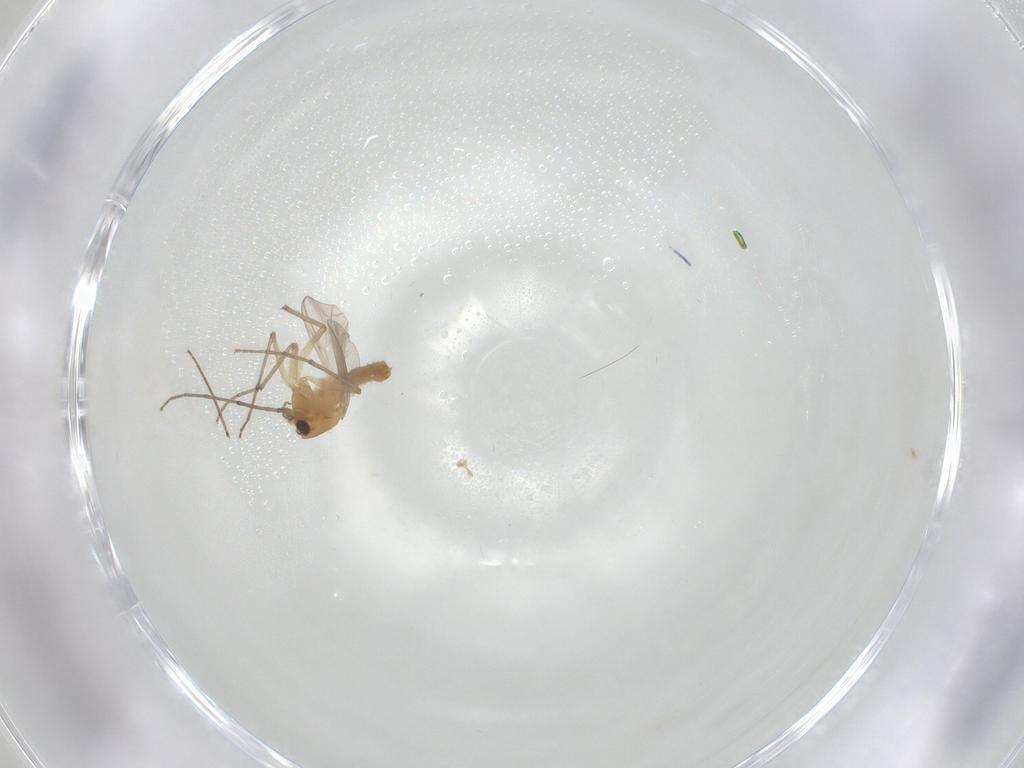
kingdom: Animalia
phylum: Arthropoda
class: Insecta
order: Diptera
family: Chironomidae
